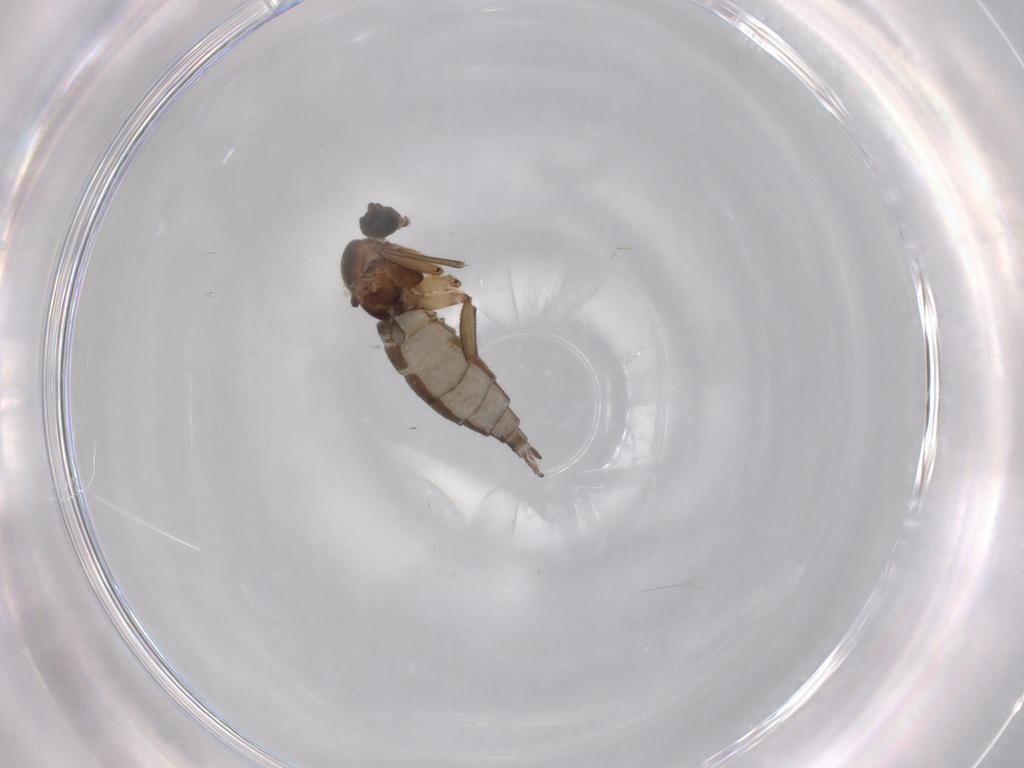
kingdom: Animalia
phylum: Arthropoda
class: Insecta
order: Diptera
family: Sciaridae
